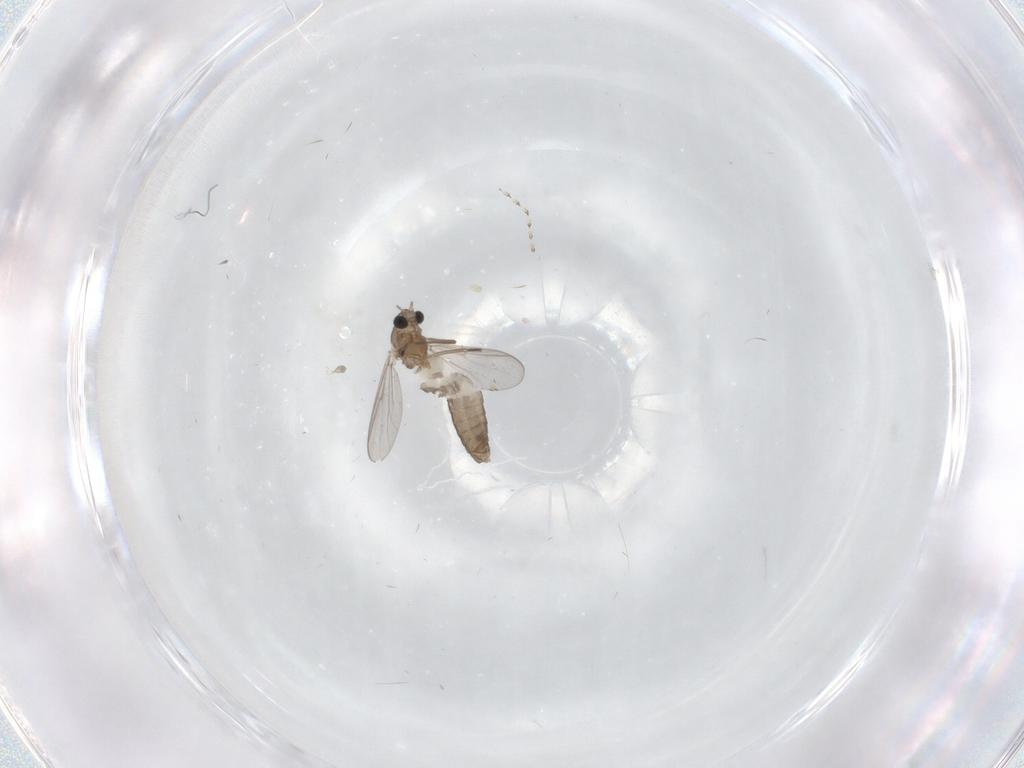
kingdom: Animalia
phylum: Arthropoda
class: Insecta
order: Diptera
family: Chironomidae
